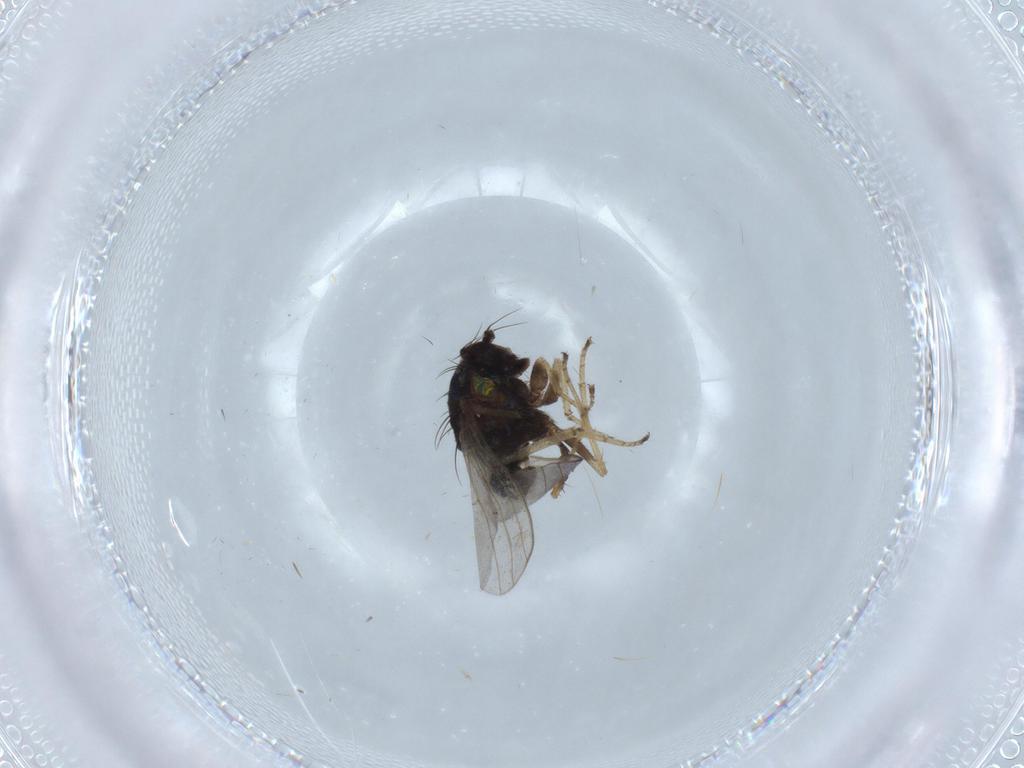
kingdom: Animalia
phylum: Arthropoda
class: Insecta
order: Diptera
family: Dolichopodidae
